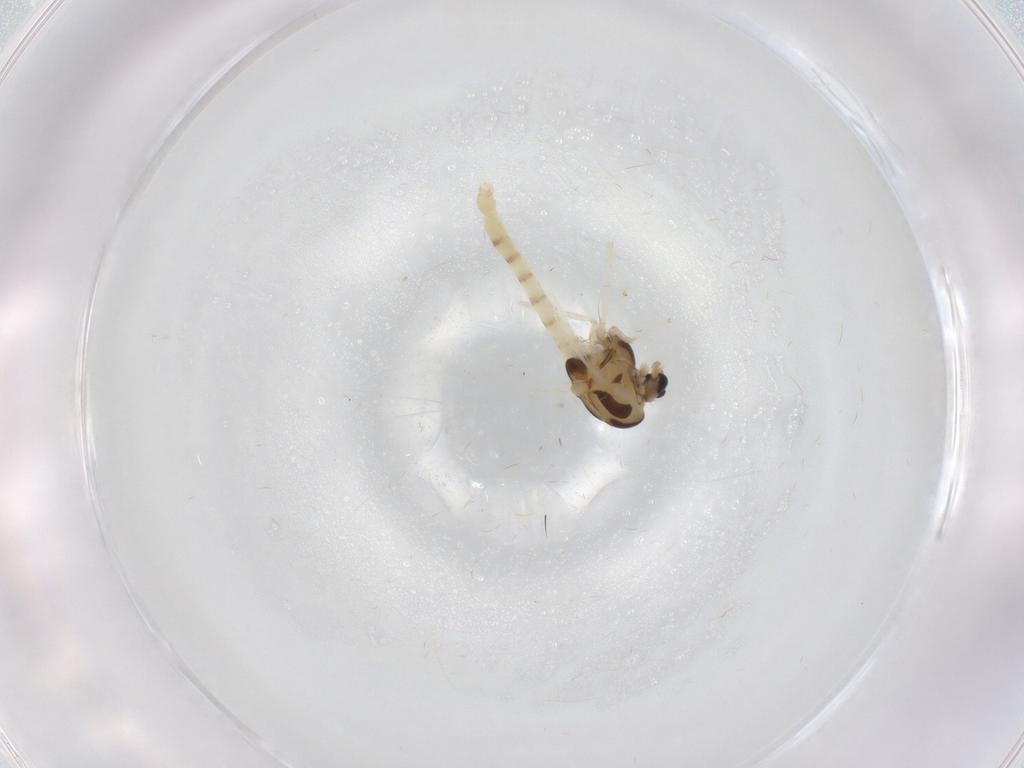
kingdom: Animalia
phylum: Arthropoda
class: Insecta
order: Diptera
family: Chironomidae
